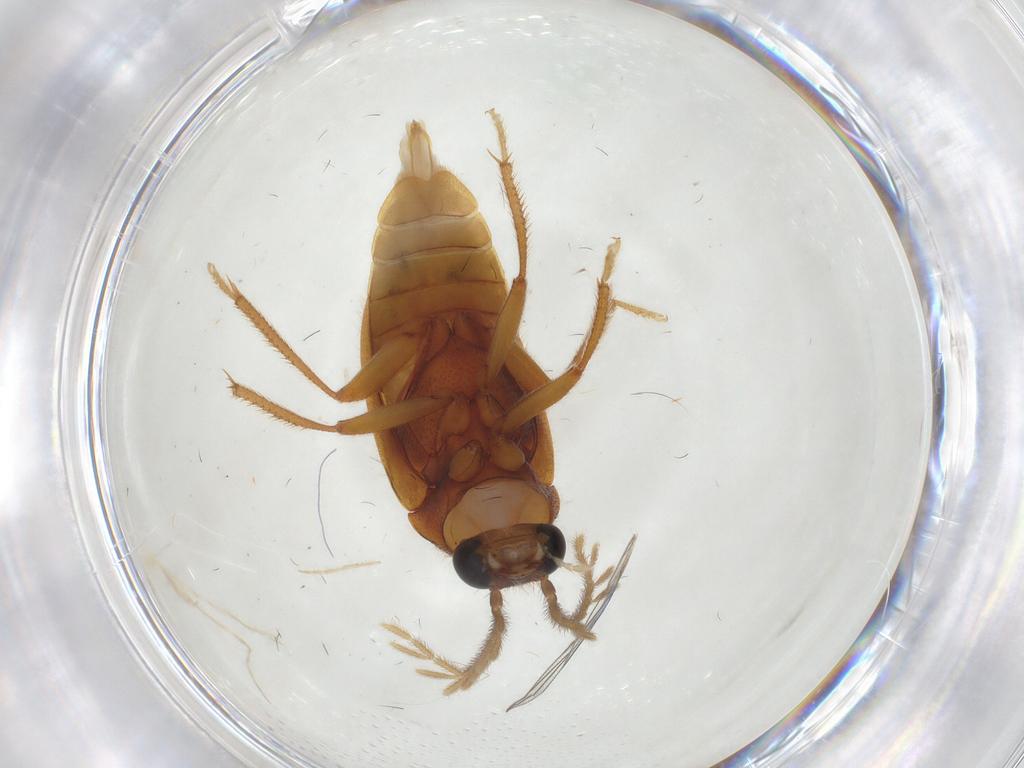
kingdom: Animalia
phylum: Arthropoda
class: Insecta
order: Coleoptera
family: Ptilodactylidae
